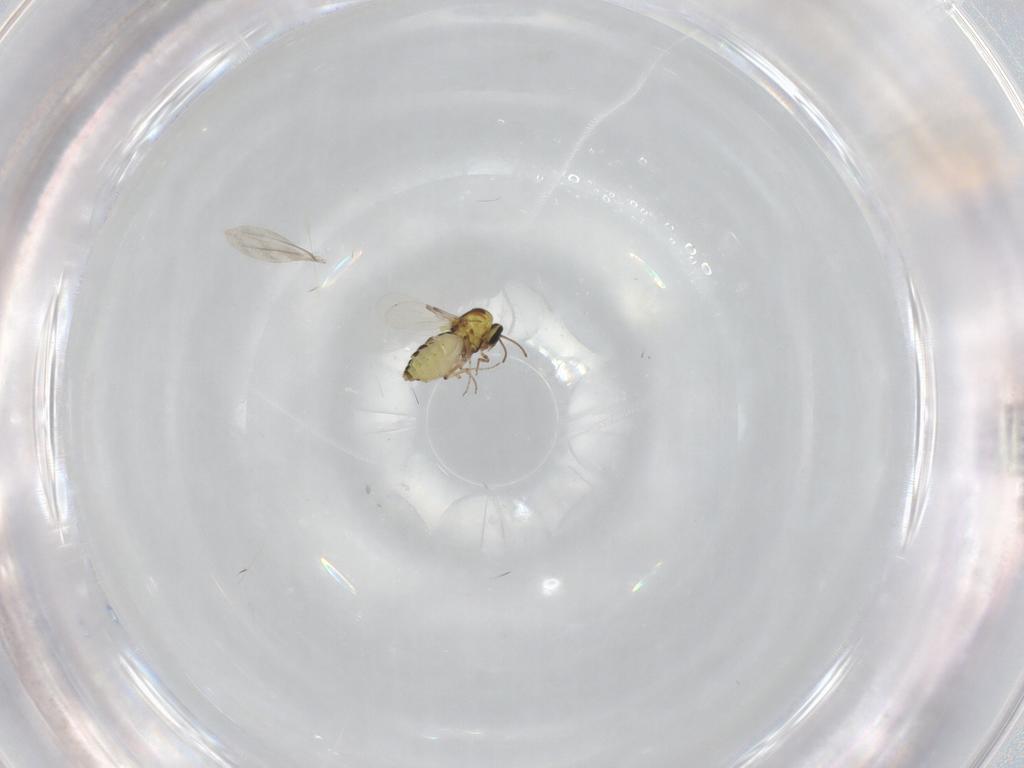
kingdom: Animalia
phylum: Arthropoda
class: Insecta
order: Diptera
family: Ceratopogonidae
